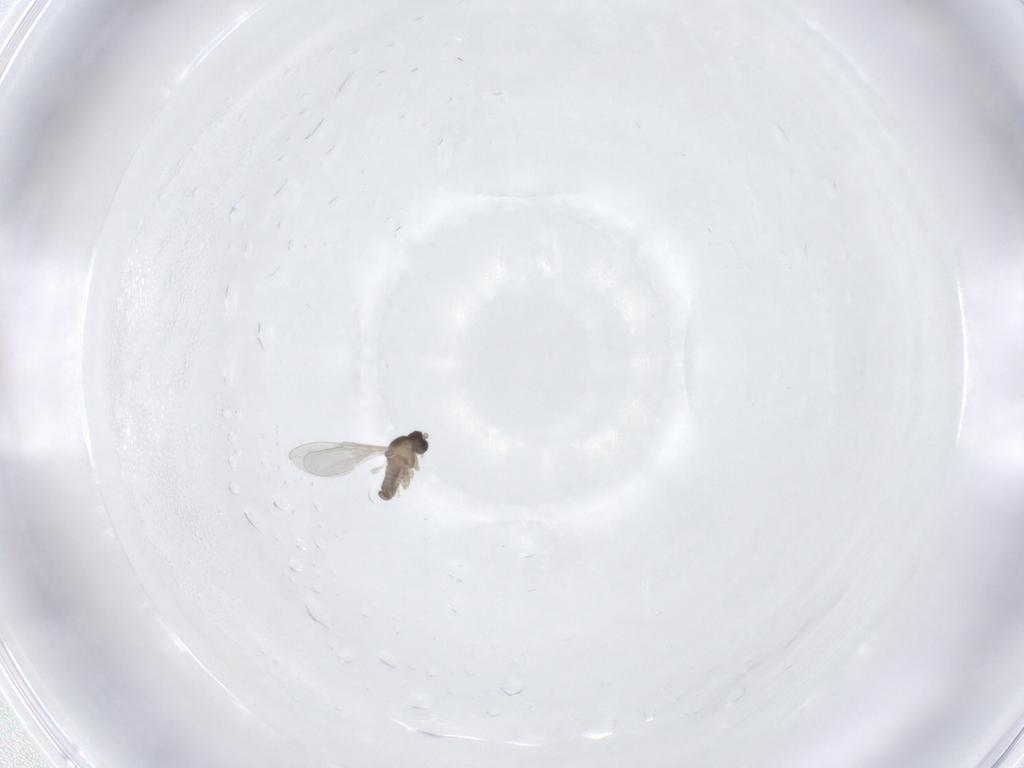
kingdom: Animalia
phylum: Arthropoda
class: Insecta
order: Diptera
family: Cecidomyiidae
